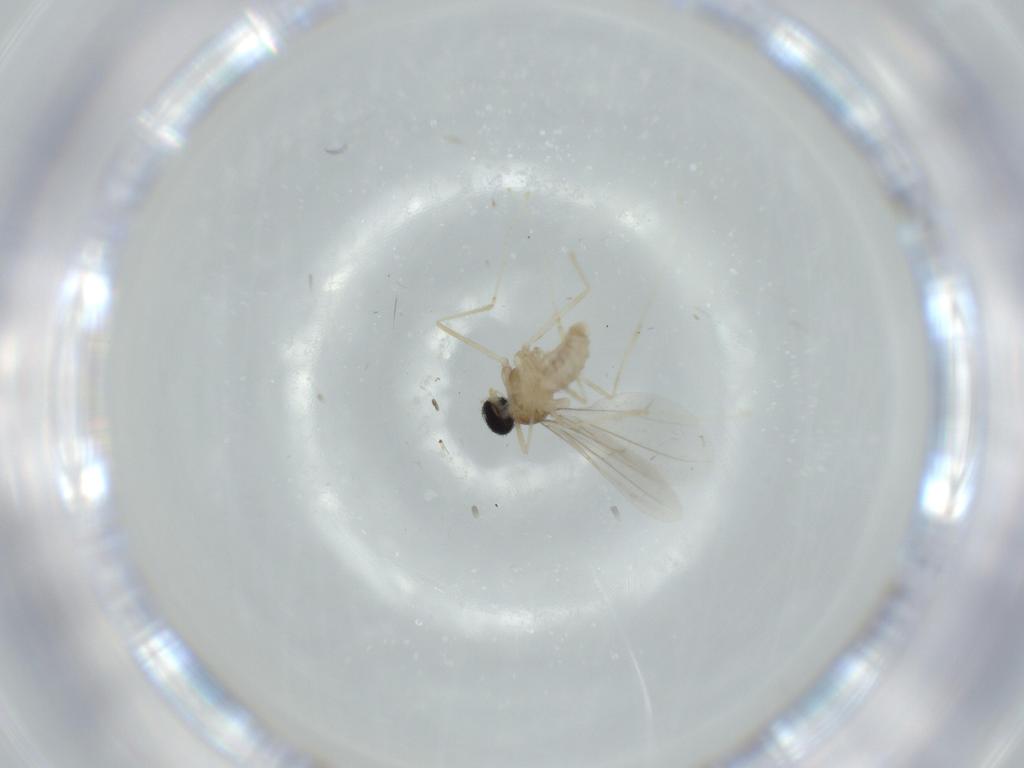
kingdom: Animalia
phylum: Arthropoda
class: Insecta
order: Diptera
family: Cecidomyiidae
